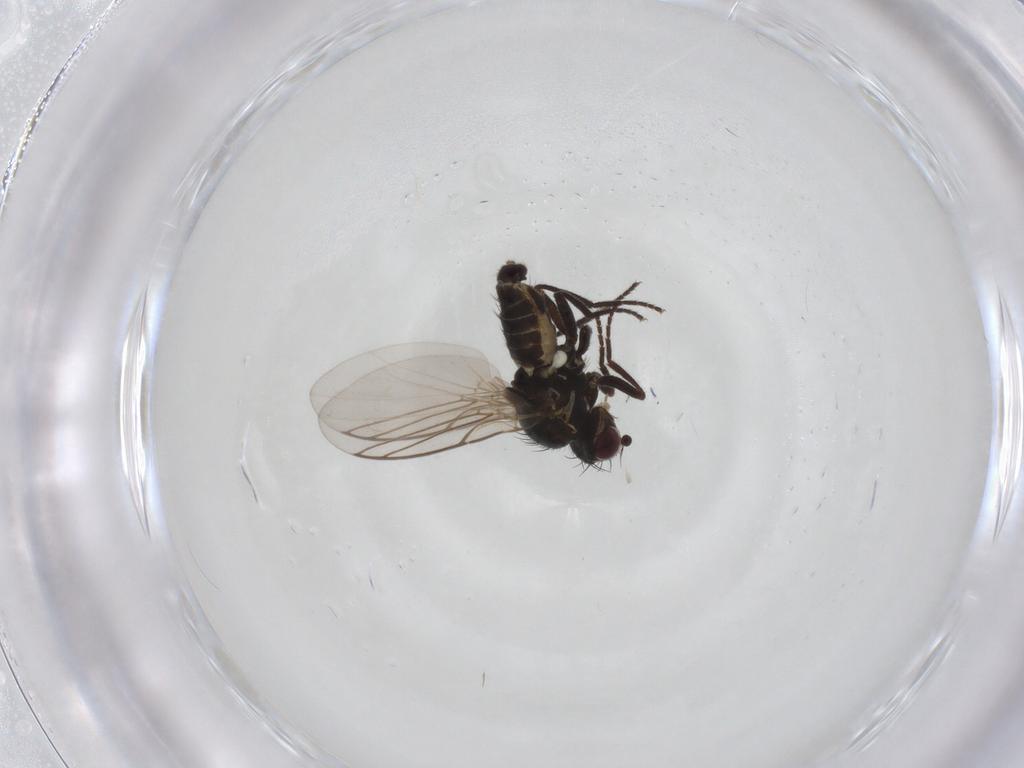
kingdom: Animalia
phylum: Arthropoda
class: Insecta
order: Diptera
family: Agromyzidae
